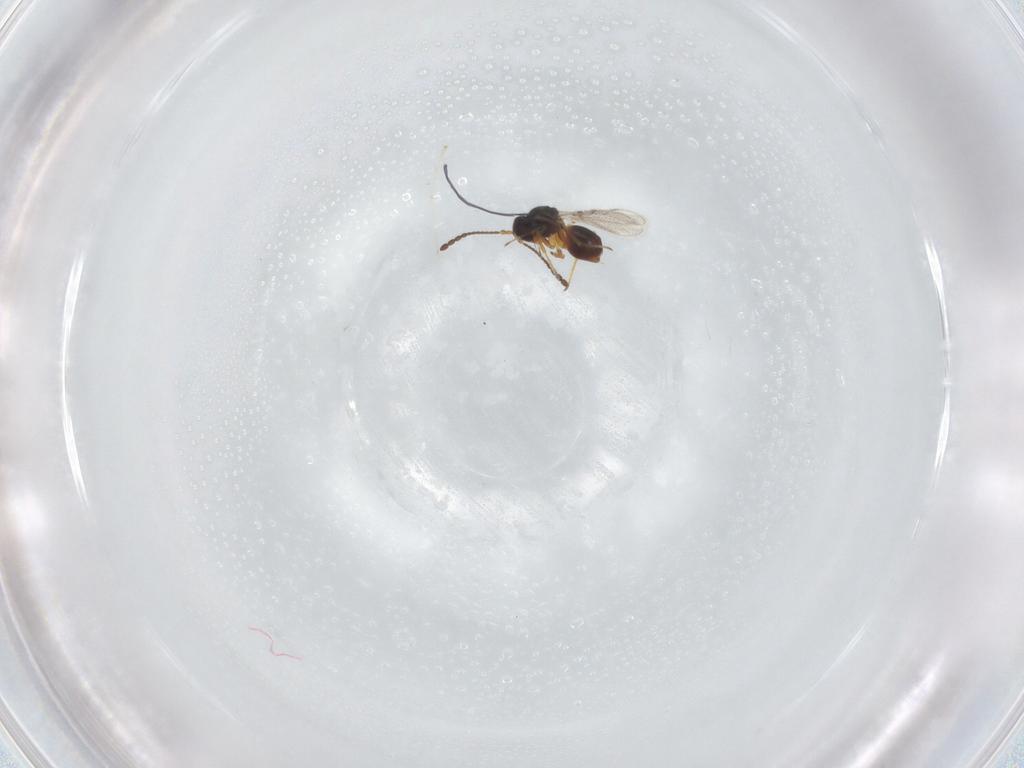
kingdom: Animalia
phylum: Arthropoda
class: Insecta
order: Hymenoptera
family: Figitidae
